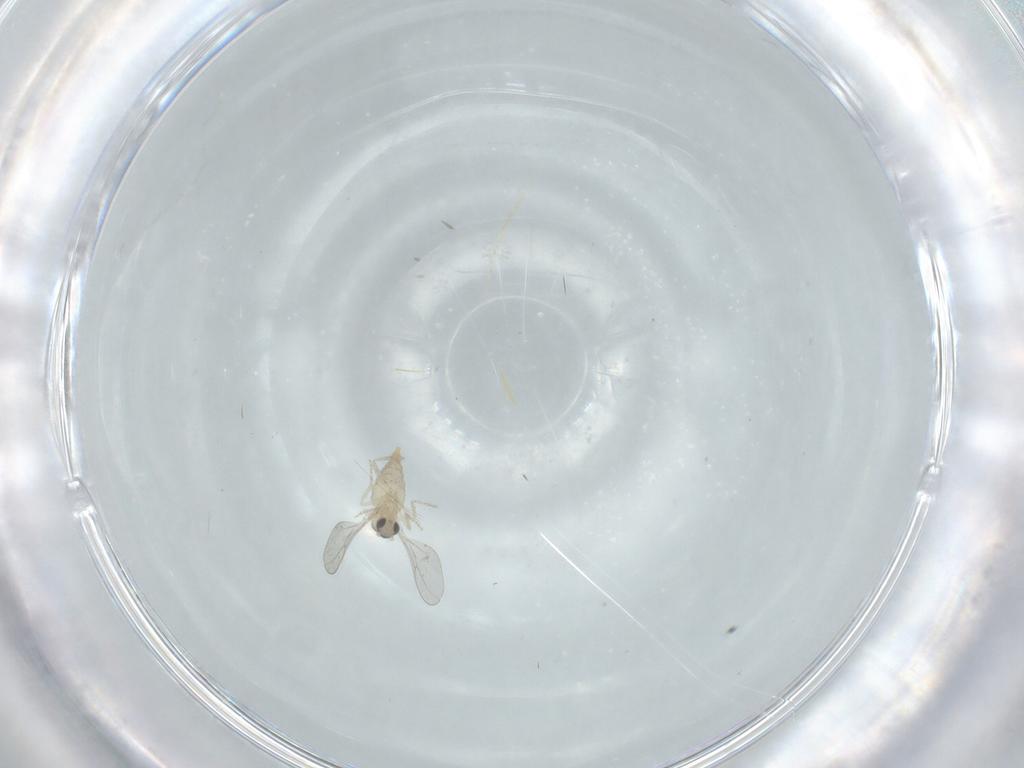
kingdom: Animalia
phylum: Arthropoda
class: Insecta
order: Diptera
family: Cecidomyiidae
